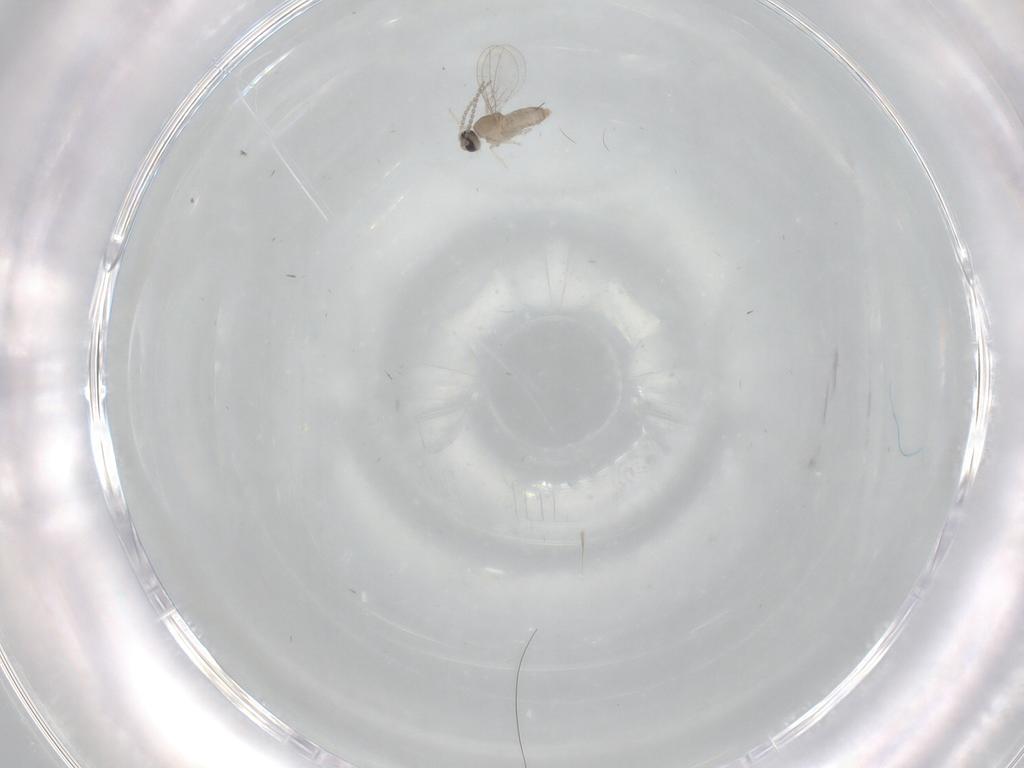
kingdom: Animalia
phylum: Arthropoda
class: Insecta
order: Diptera
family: Cecidomyiidae
